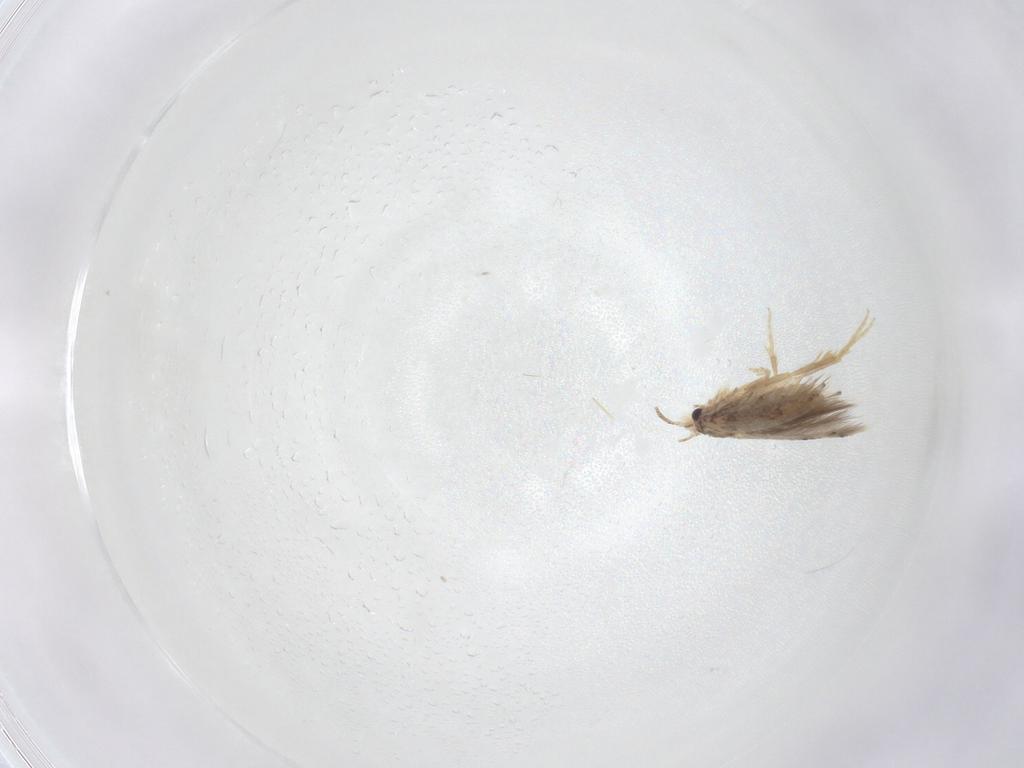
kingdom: Animalia
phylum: Arthropoda
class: Insecta
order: Lepidoptera
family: Nepticulidae
